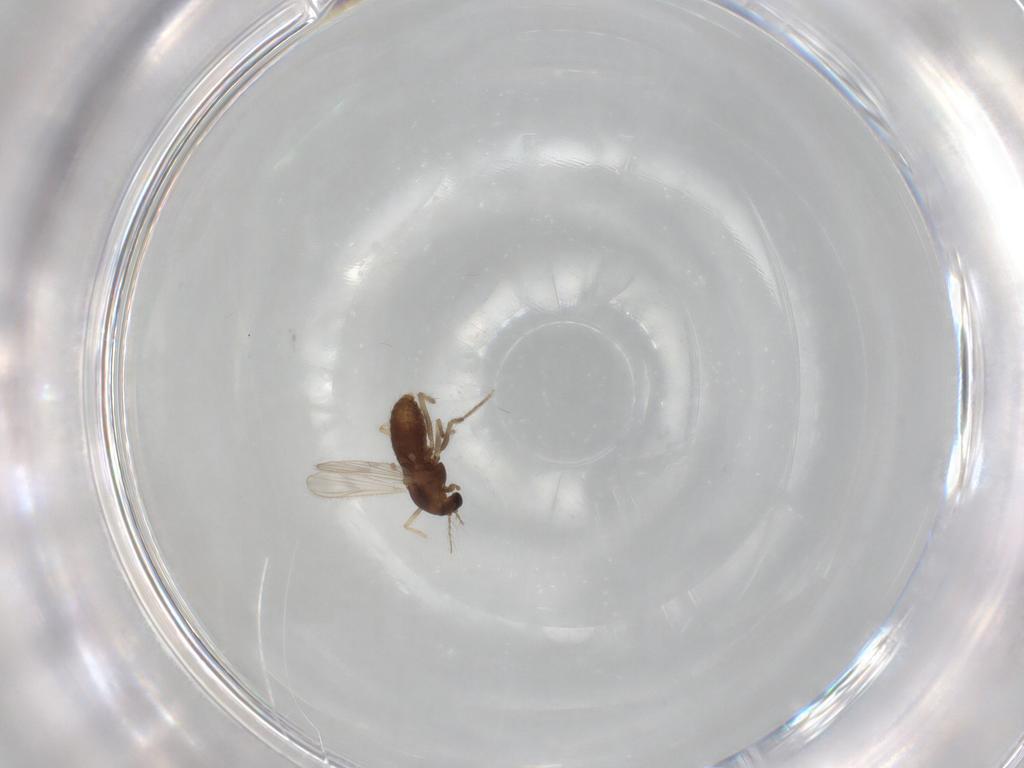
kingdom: Animalia
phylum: Arthropoda
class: Insecta
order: Diptera
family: Chironomidae
